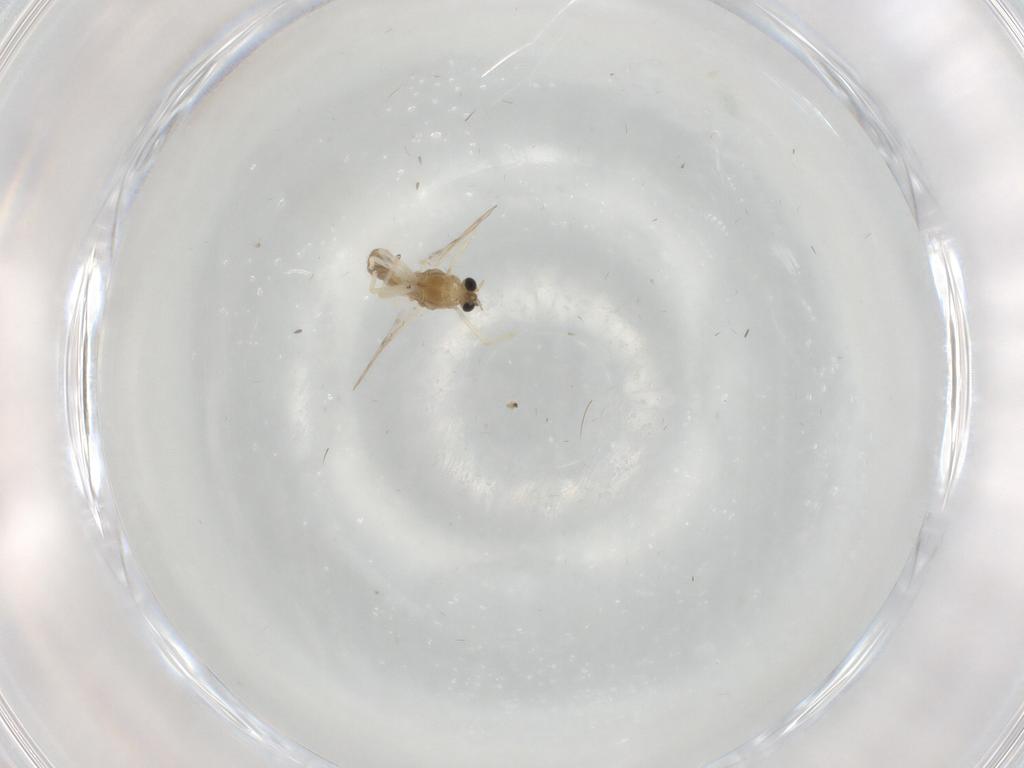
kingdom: Animalia
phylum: Arthropoda
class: Insecta
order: Diptera
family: Chironomidae
